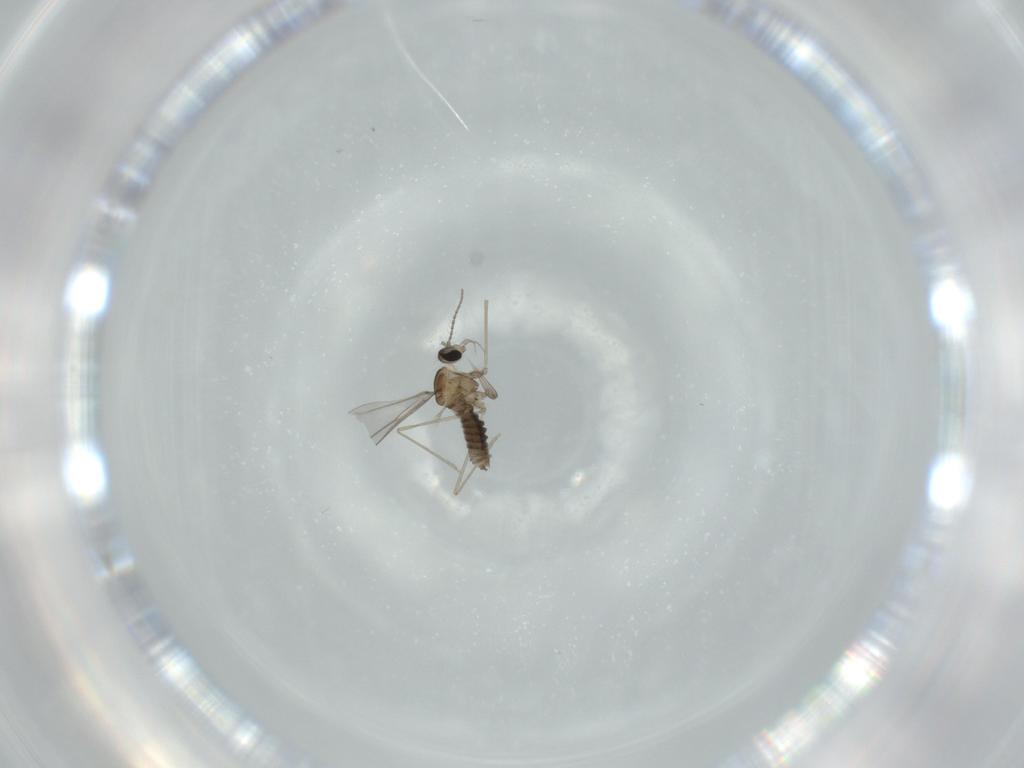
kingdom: Animalia
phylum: Arthropoda
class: Insecta
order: Diptera
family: Cecidomyiidae
